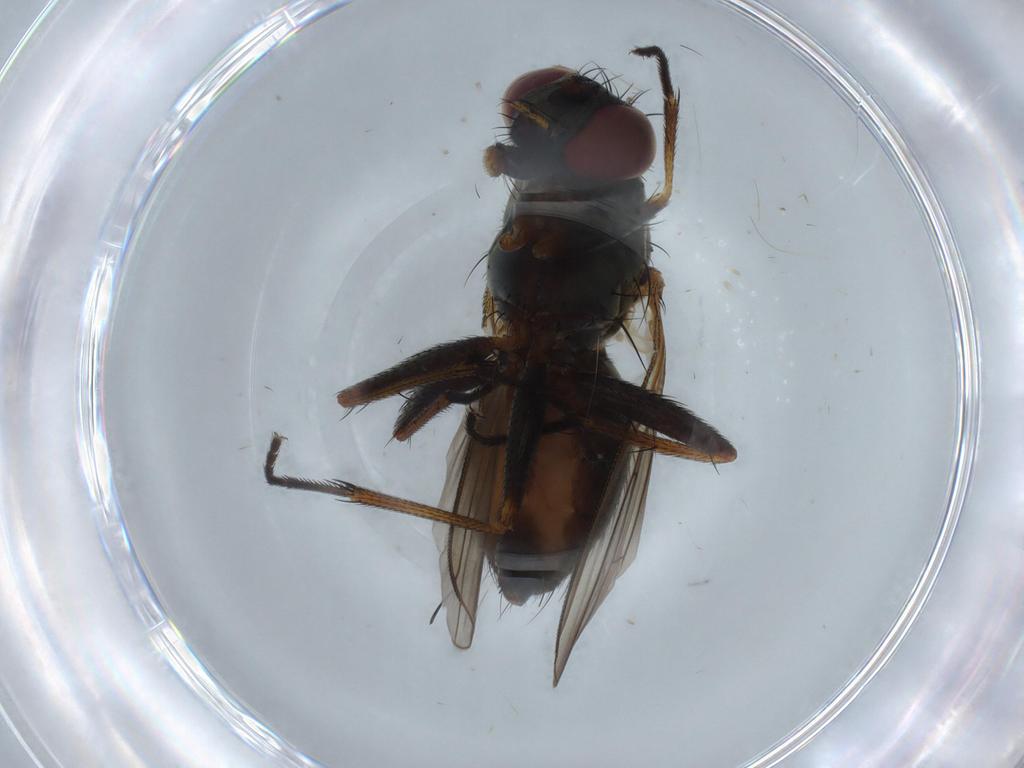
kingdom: Animalia
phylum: Arthropoda
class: Insecta
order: Diptera
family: Muscidae
